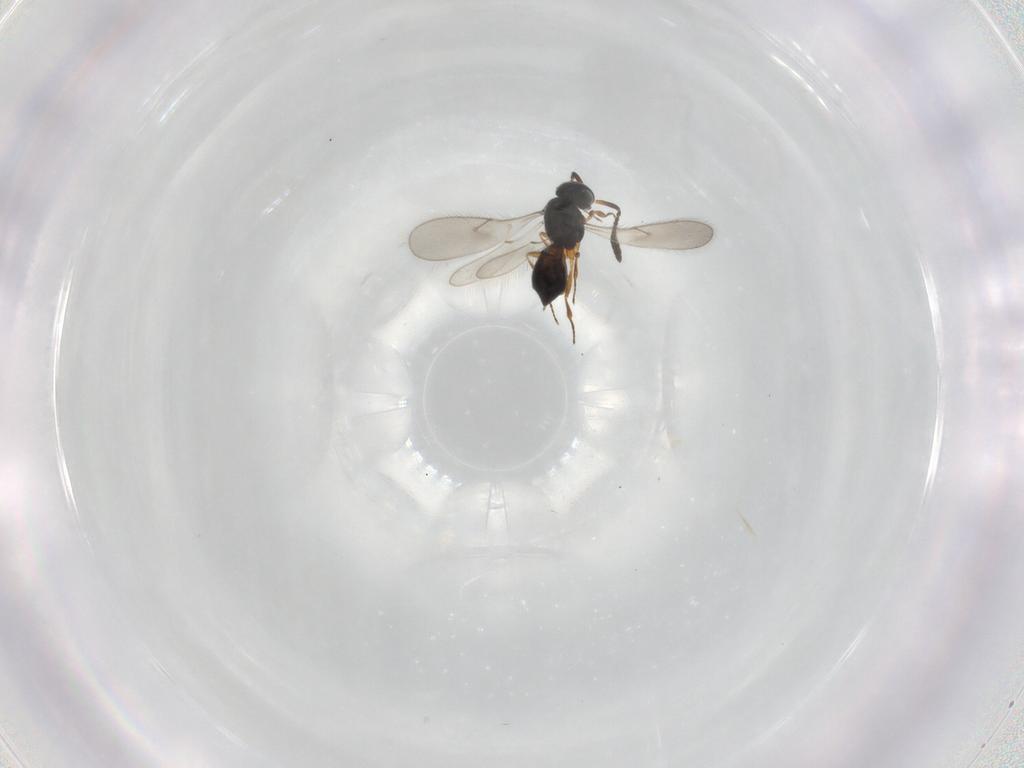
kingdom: Animalia
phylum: Arthropoda
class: Insecta
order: Hymenoptera
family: Scelionidae
